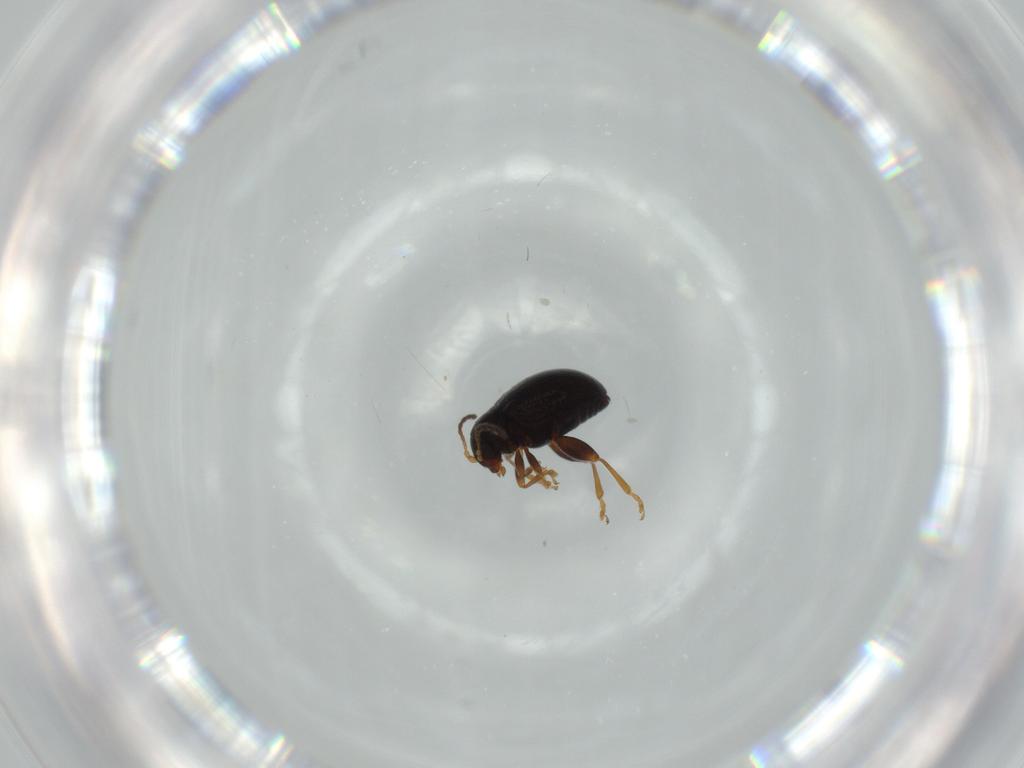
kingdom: Animalia
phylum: Arthropoda
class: Insecta
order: Coleoptera
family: Chrysomelidae
